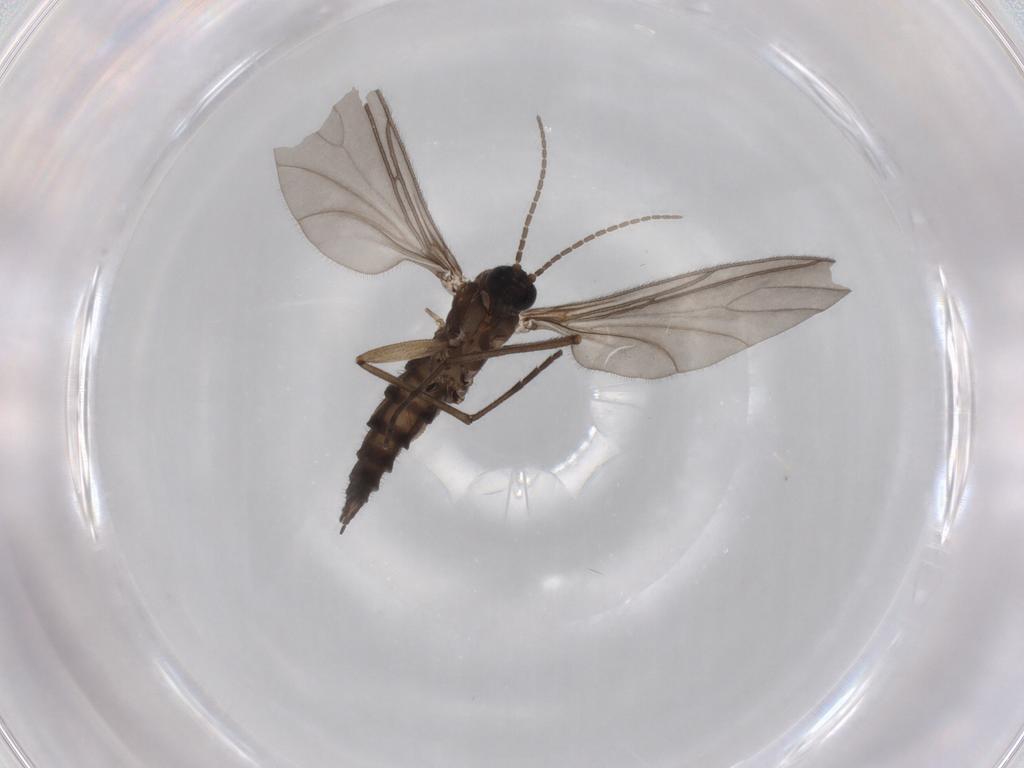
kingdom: Animalia
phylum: Arthropoda
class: Insecta
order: Diptera
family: Sciaridae
